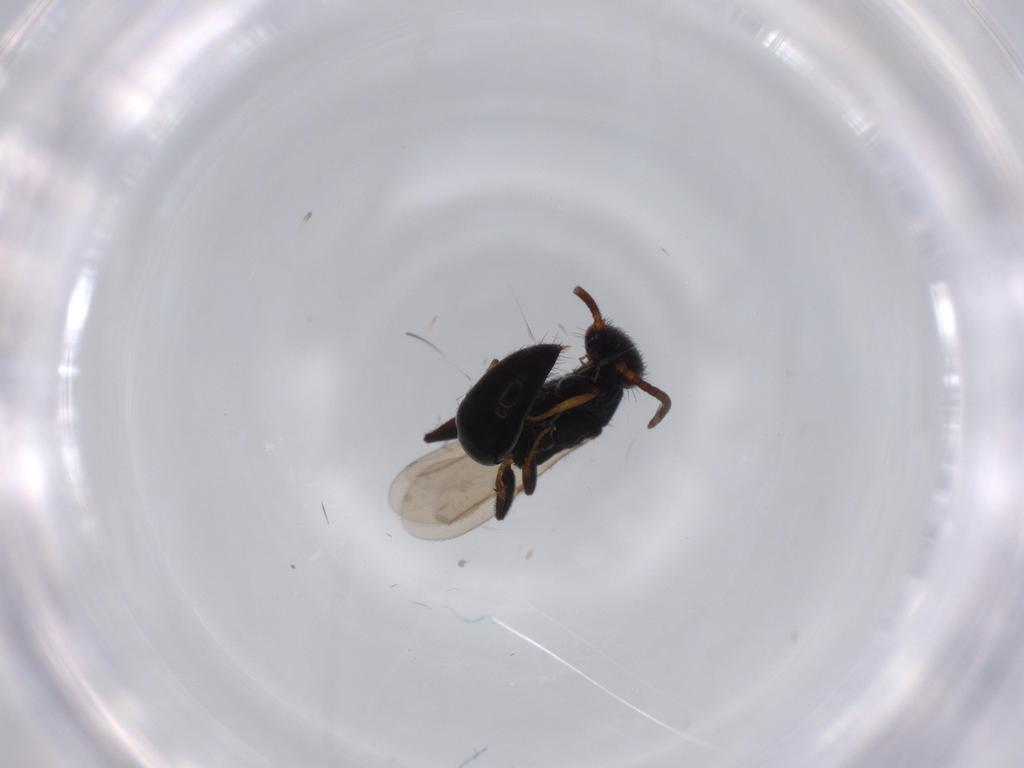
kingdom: Animalia
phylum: Arthropoda
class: Insecta
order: Hymenoptera
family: Bethylidae
